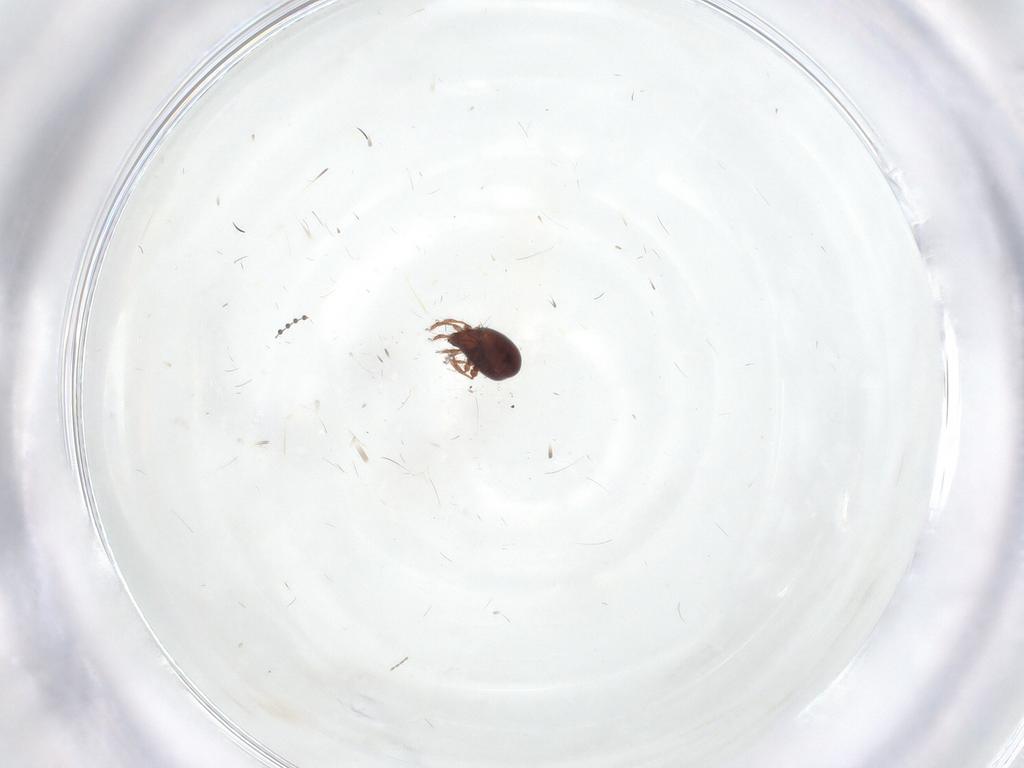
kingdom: Animalia
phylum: Arthropoda
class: Arachnida
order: Sarcoptiformes
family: Ceratozetidae
